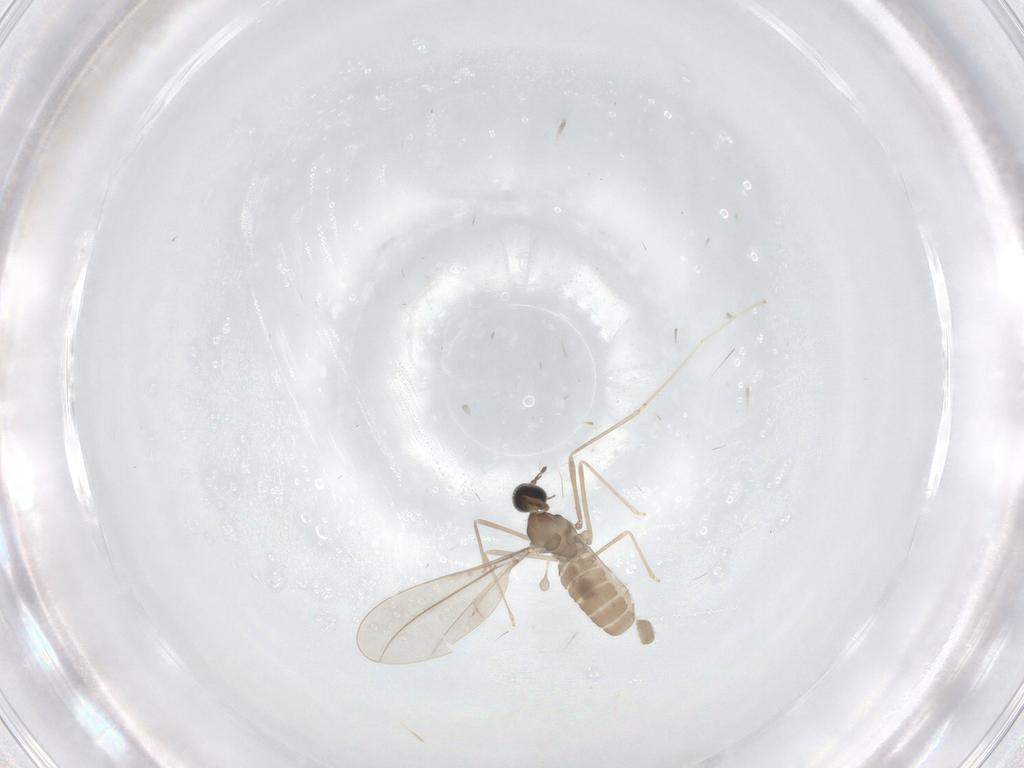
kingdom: Animalia
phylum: Arthropoda
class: Insecta
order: Diptera
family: Cecidomyiidae
